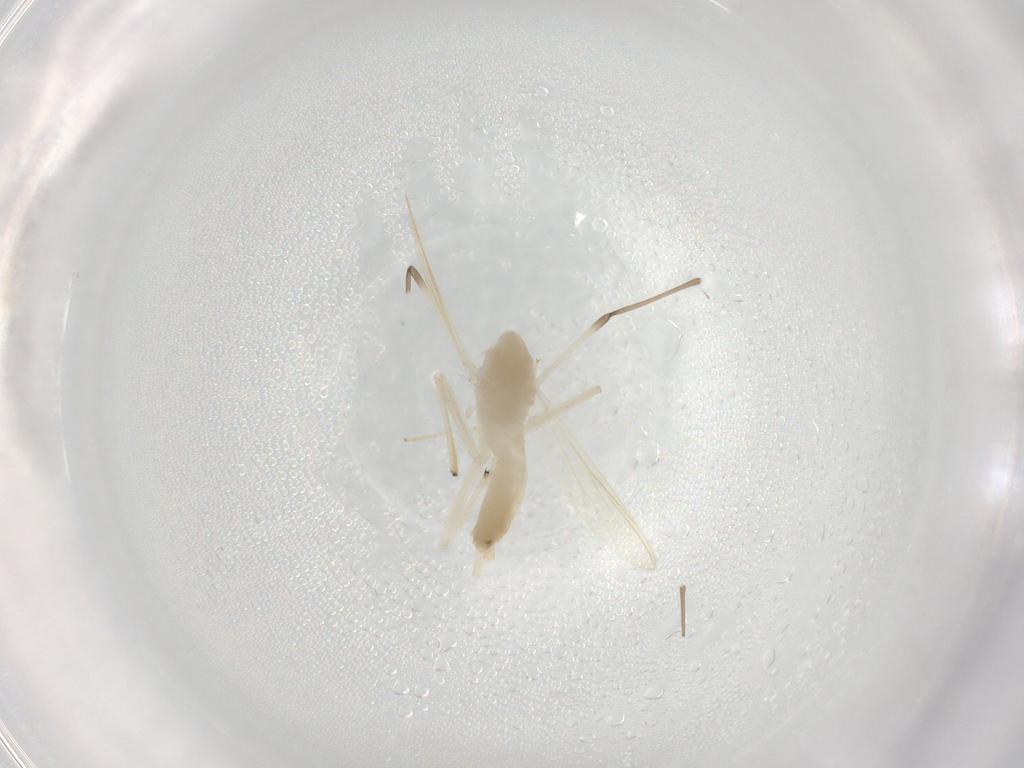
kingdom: Animalia
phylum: Arthropoda
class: Insecta
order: Diptera
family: Chironomidae
